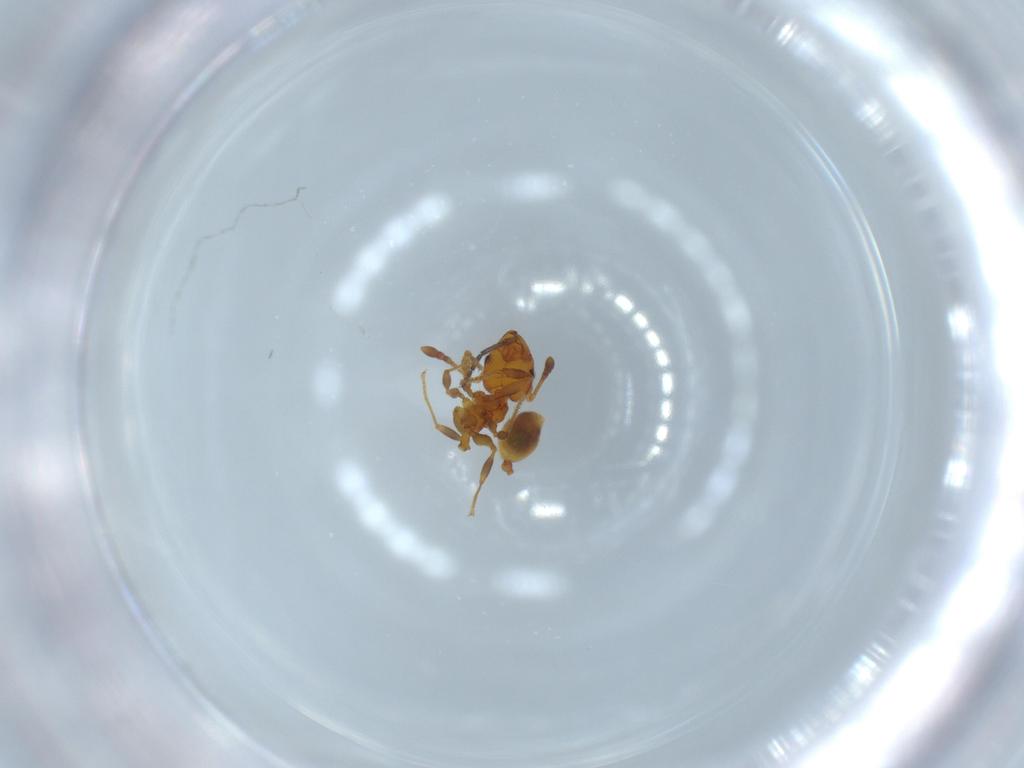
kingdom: Animalia
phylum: Arthropoda
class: Insecta
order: Hymenoptera
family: Formicidae
